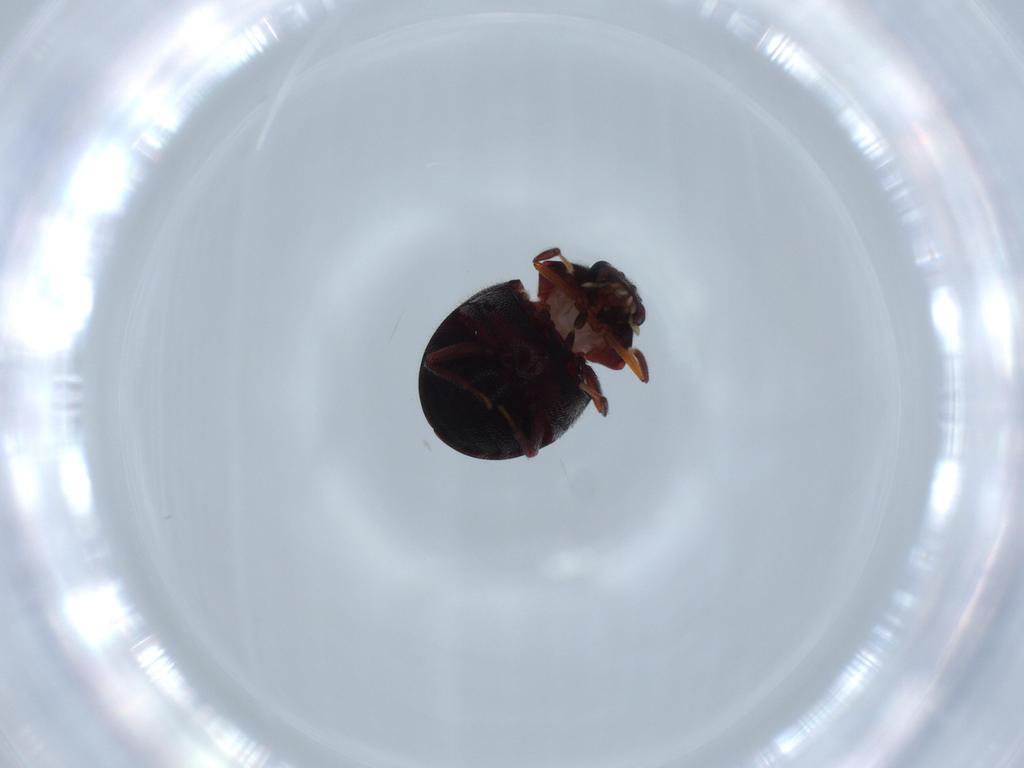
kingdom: Animalia
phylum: Arthropoda
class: Insecta
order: Coleoptera
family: Ptinidae
